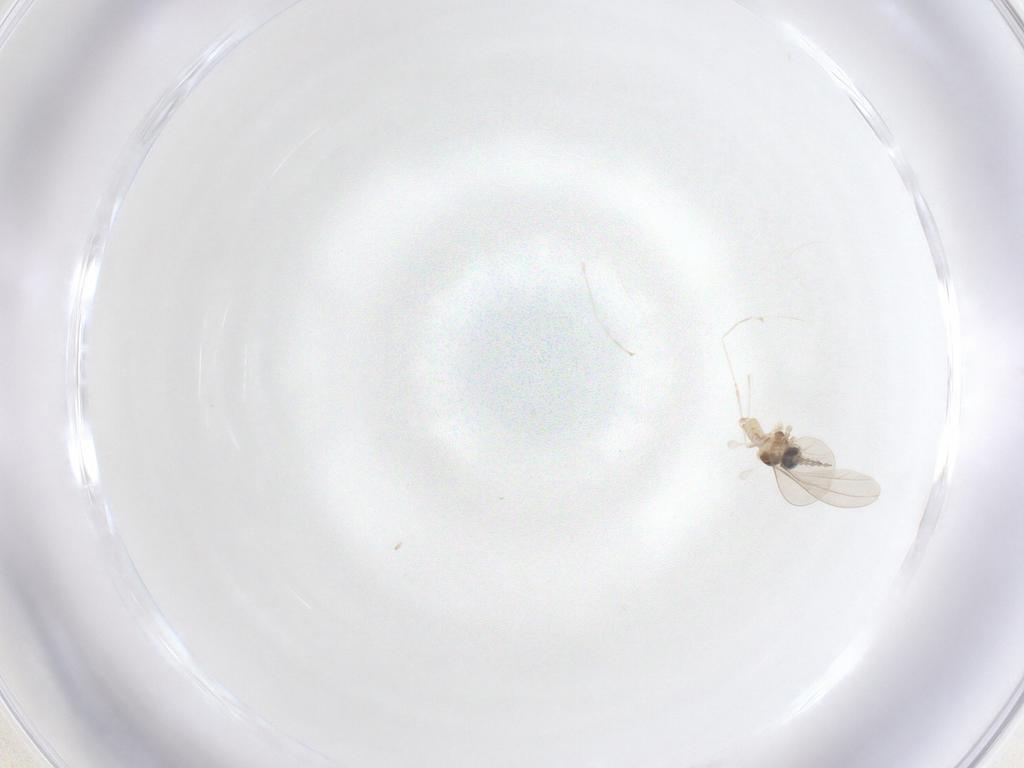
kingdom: Animalia
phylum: Arthropoda
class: Insecta
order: Diptera
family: Cecidomyiidae
